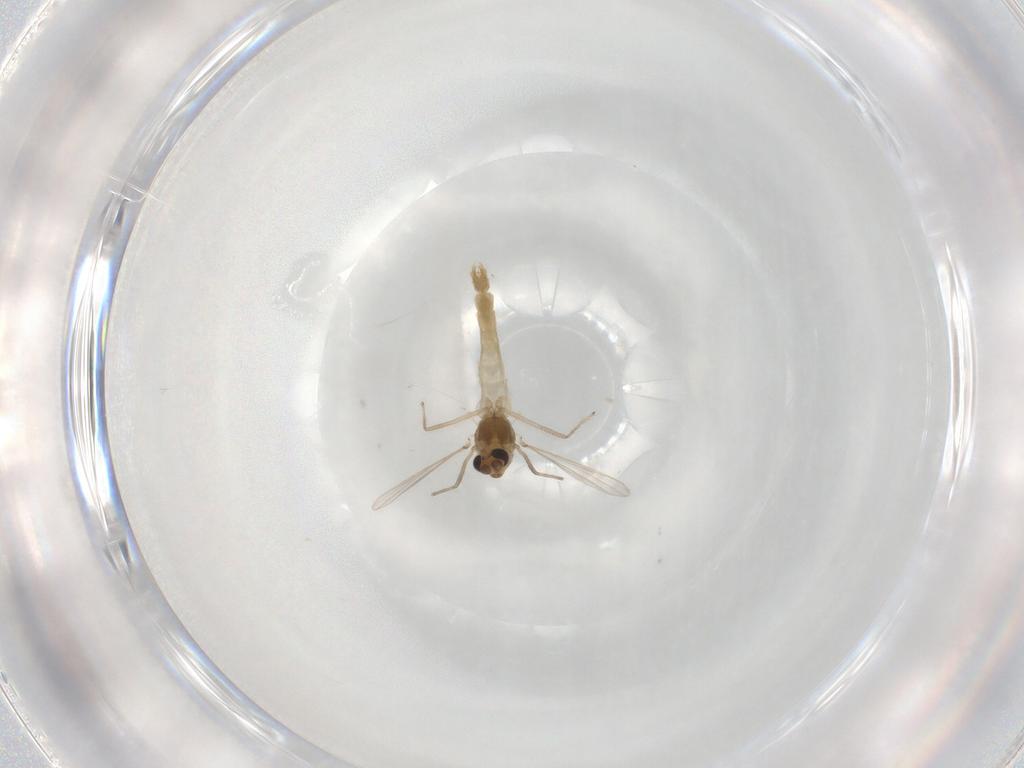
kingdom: Animalia
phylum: Arthropoda
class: Insecta
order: Diptera
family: Chironomidae
